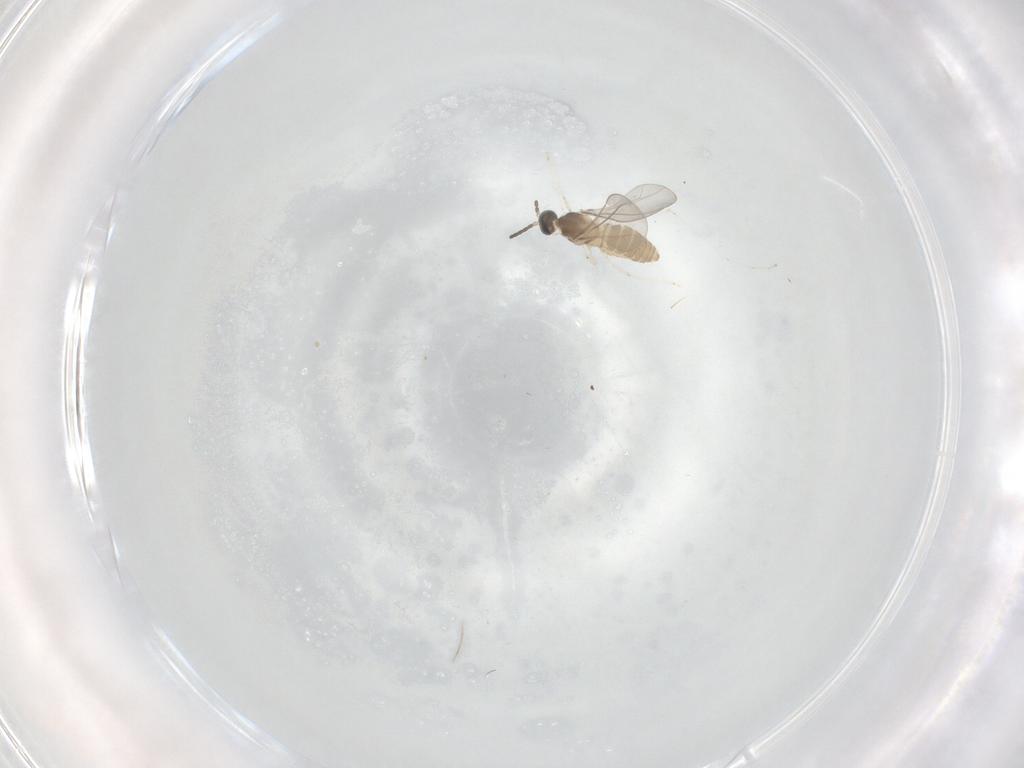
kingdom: Animalia
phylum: Arthropoda
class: Insecta
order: Diptera
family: Cecidomyiidae
